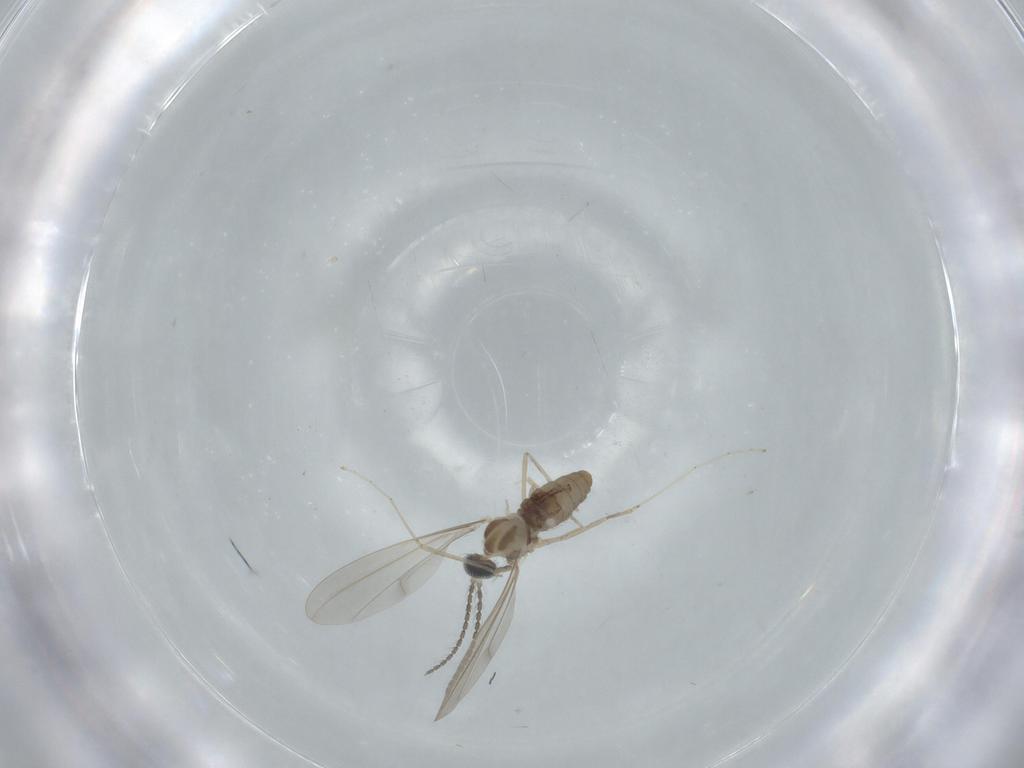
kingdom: Animalia
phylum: Arthropoda
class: Insecta
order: Diptera
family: Cecidomyiidae
